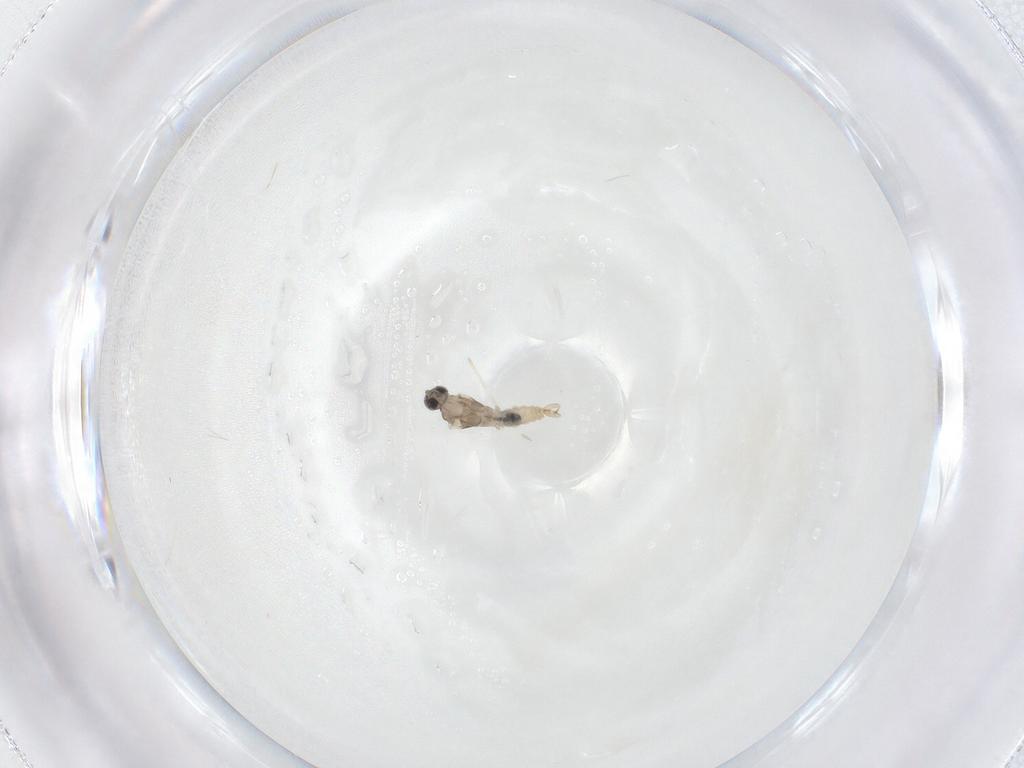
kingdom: Animalia
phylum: Arthropoda
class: Insecta
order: Diptera
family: Cecidomyiidae
